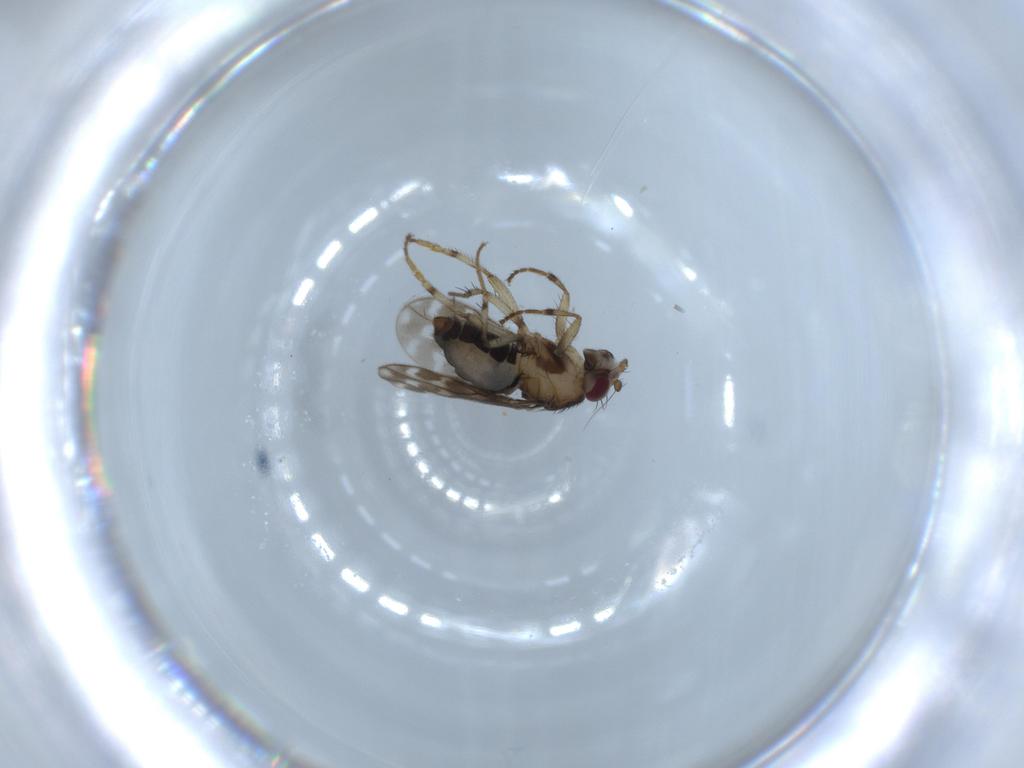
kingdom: Animalia
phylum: Arthropoda
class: Insecta
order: Diptera
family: Sphaeroceridae
